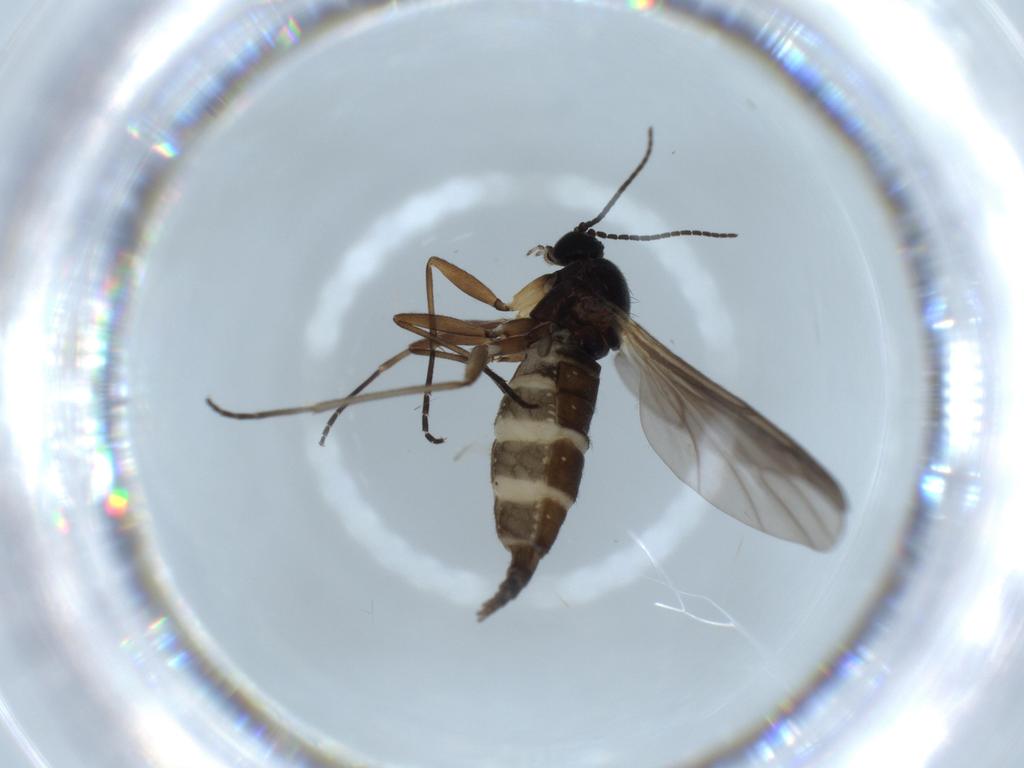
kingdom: Animalia
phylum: Arthropoda
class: Insecta
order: Diptera
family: Sciaridae
